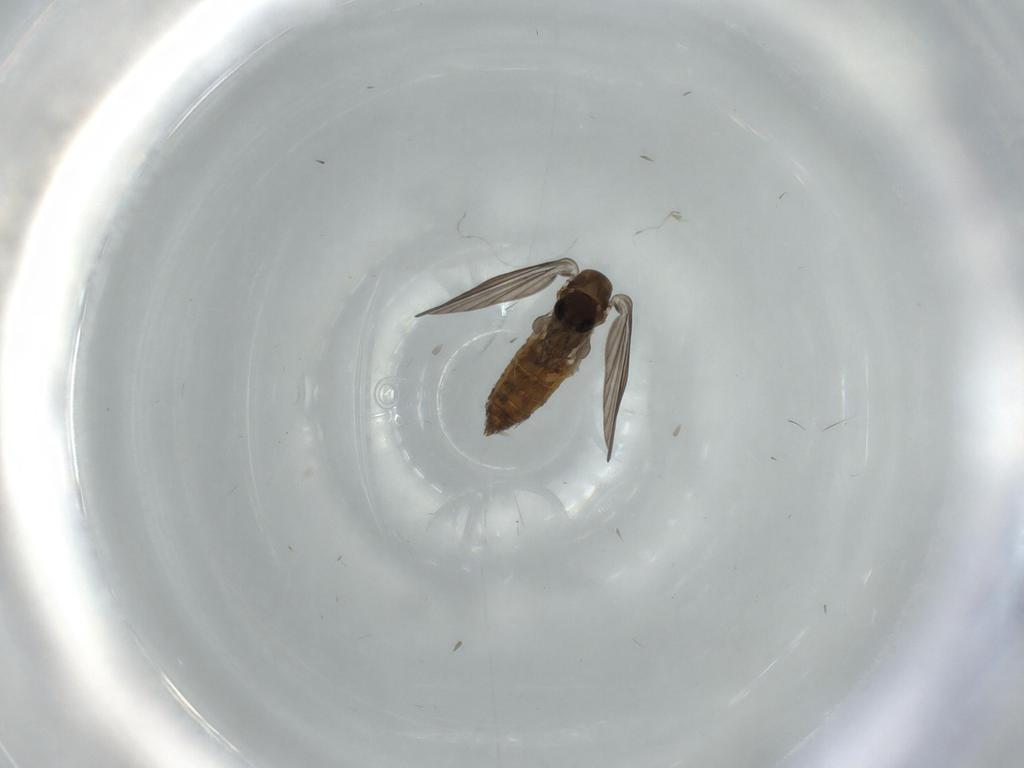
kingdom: Animalia
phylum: Arthropoda
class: Insecta
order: Diptera
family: Psychodidae
